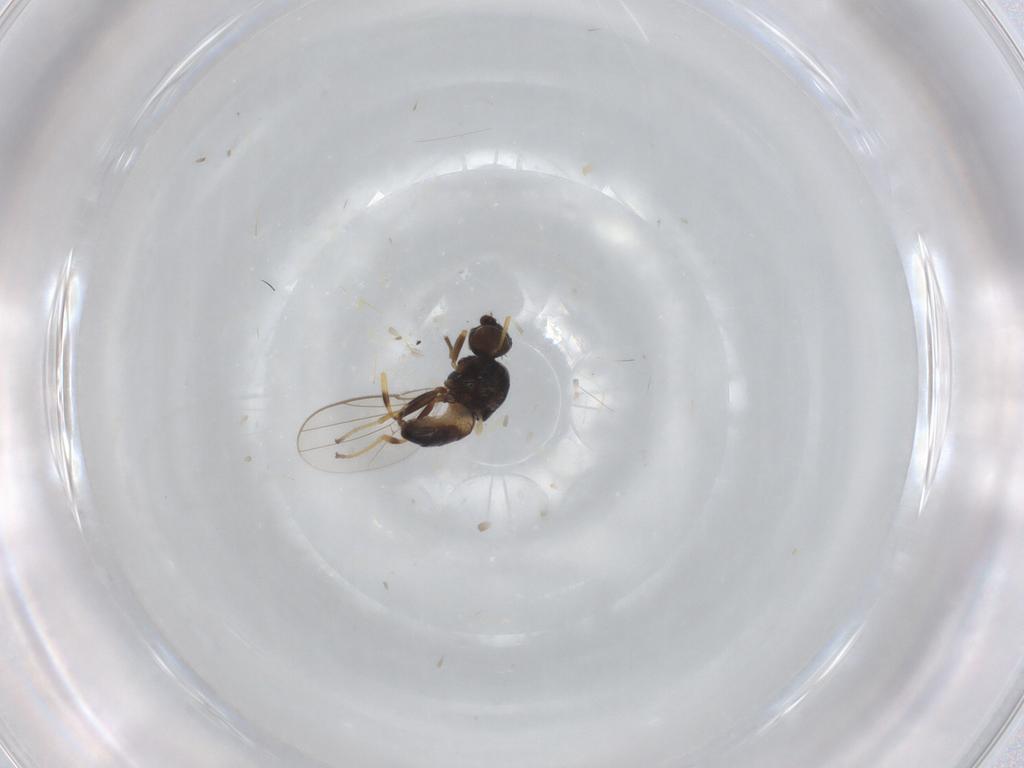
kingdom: Animalia
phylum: Arthropoda
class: Insecta
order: Diptera
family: Chloropidae
